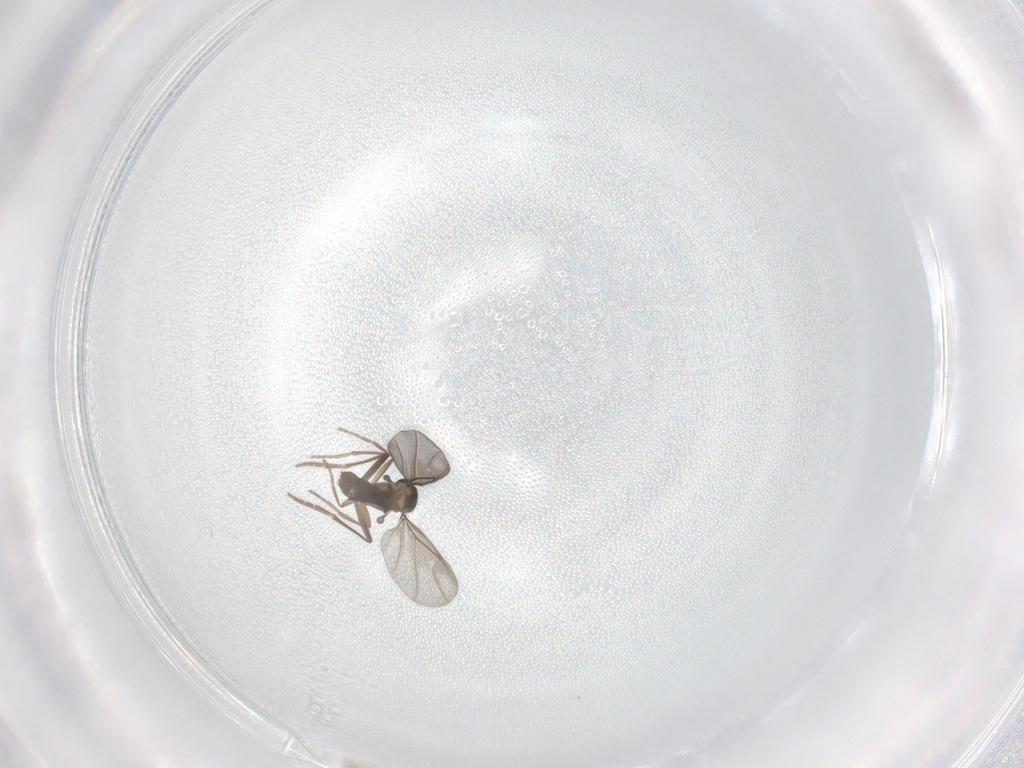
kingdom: Animalia
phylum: Arthropoda
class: Insecta
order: Diptera
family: Phoridae
